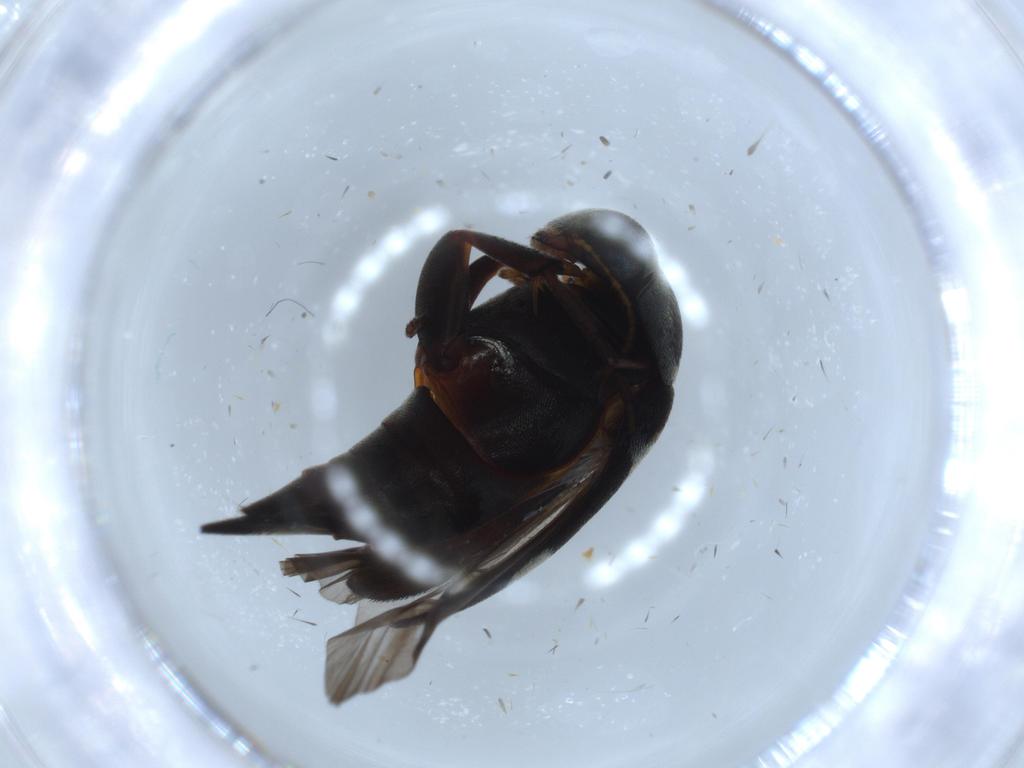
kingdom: Animalia
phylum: Arthropoda
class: Insecta
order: Coleoptera
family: Mordellidae
